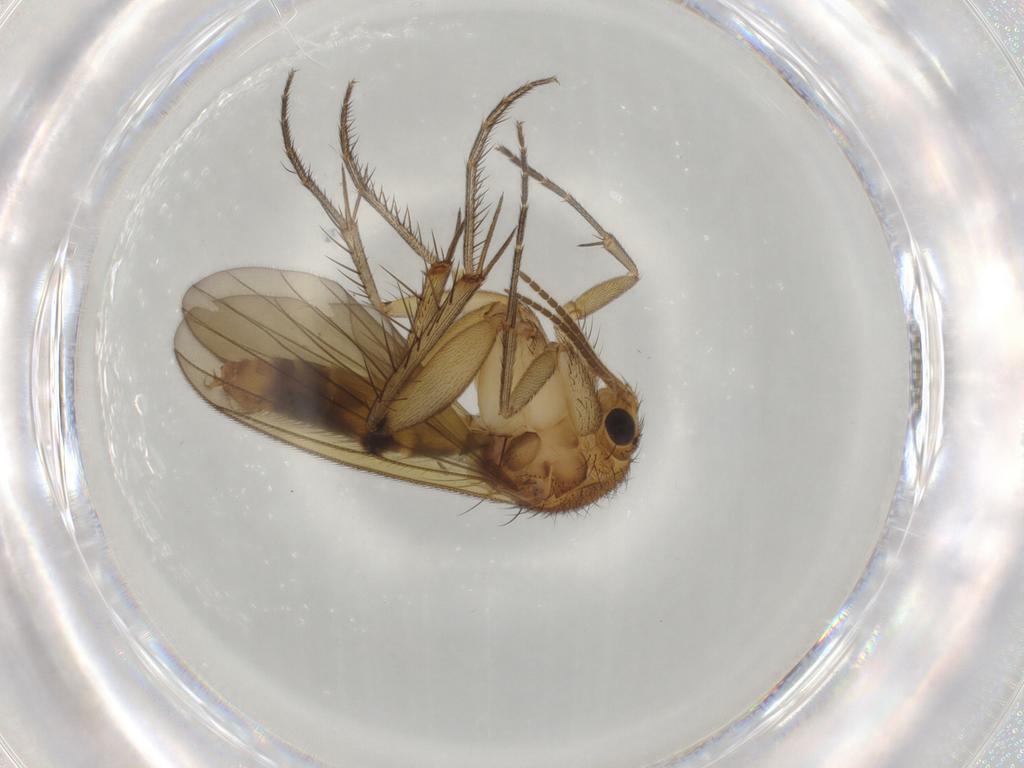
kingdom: Animalia
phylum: Arthropoda
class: Insecta
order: Diptera
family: Mycetophilidae
